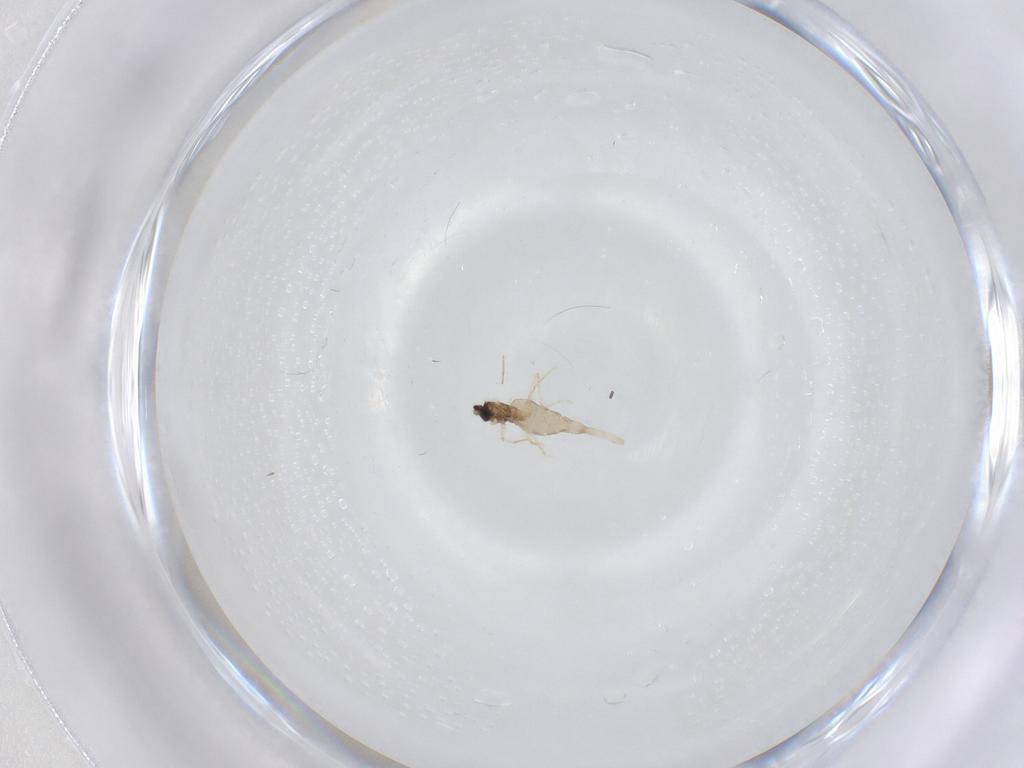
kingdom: Animalia
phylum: Arthropoda
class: Insecta
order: Diptera
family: Cecidomyiidae
